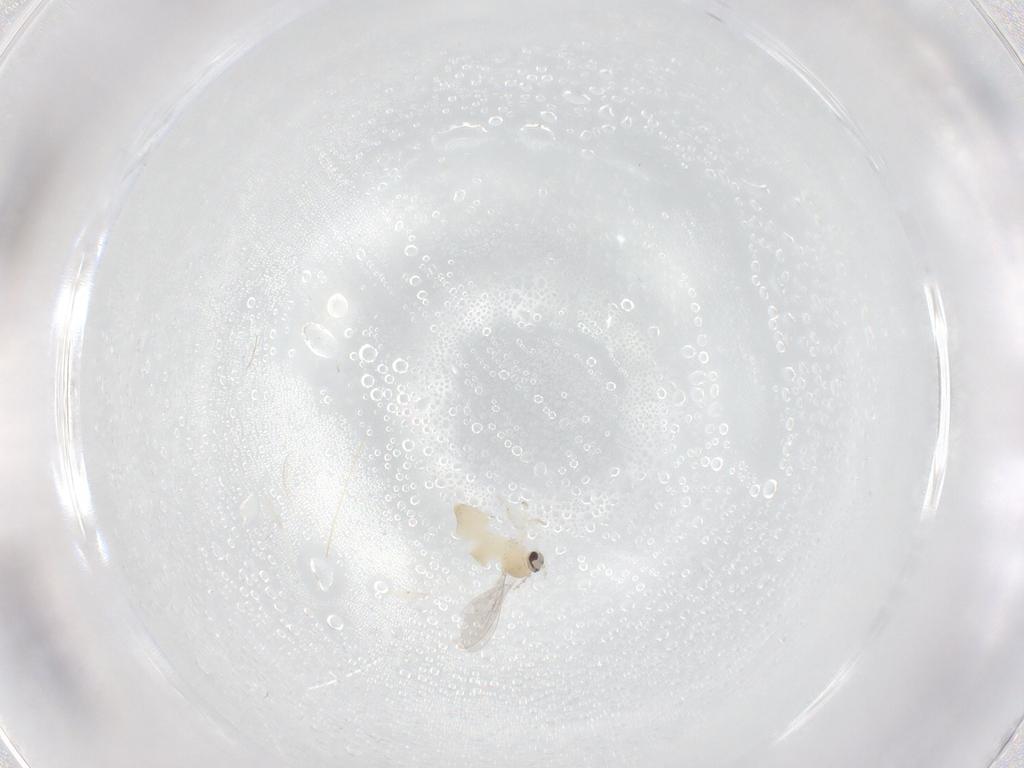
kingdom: Animalia
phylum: Arthropoda
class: Insecta
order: Diptera
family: Cecidomyiidae
